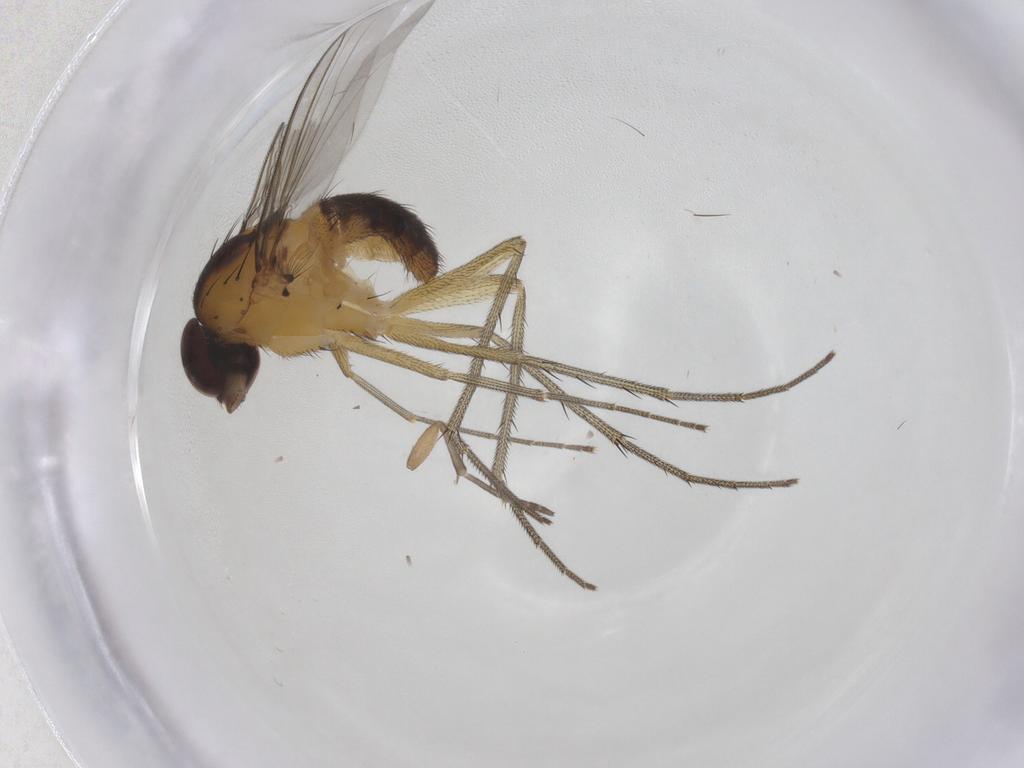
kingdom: Animalia
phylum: Arthropoda
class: Insecta
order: Diptera
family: Dolichopodidae
